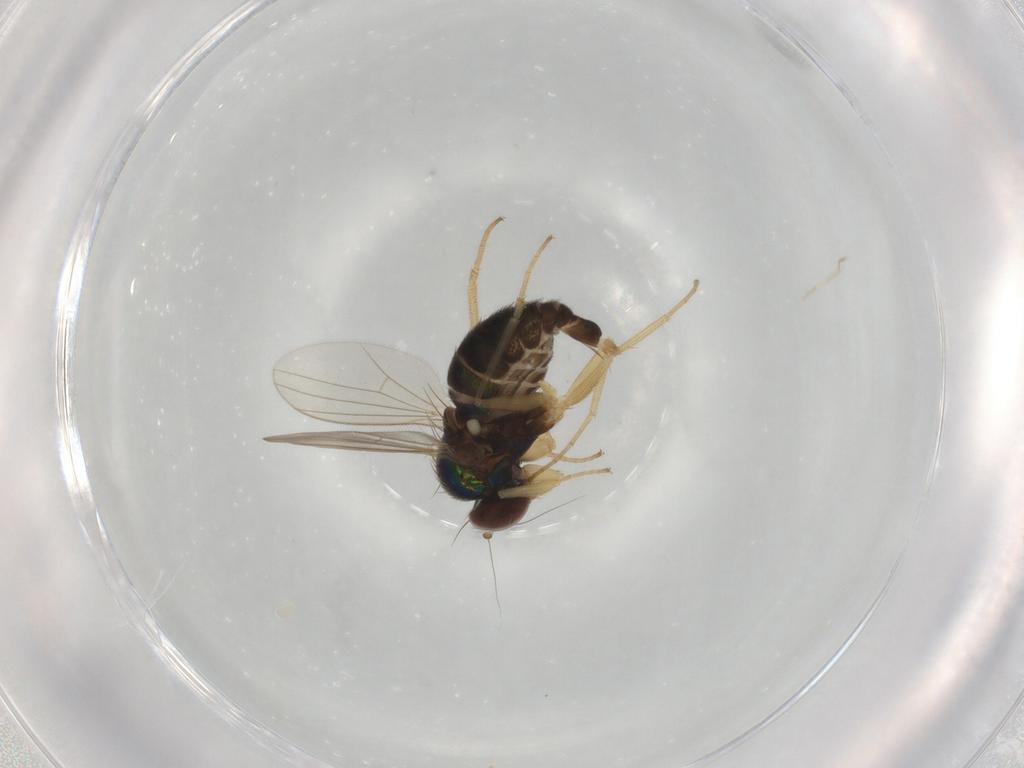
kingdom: Animalia
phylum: Arthropoda
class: Insecta
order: Diptera
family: Dolichopodidae
